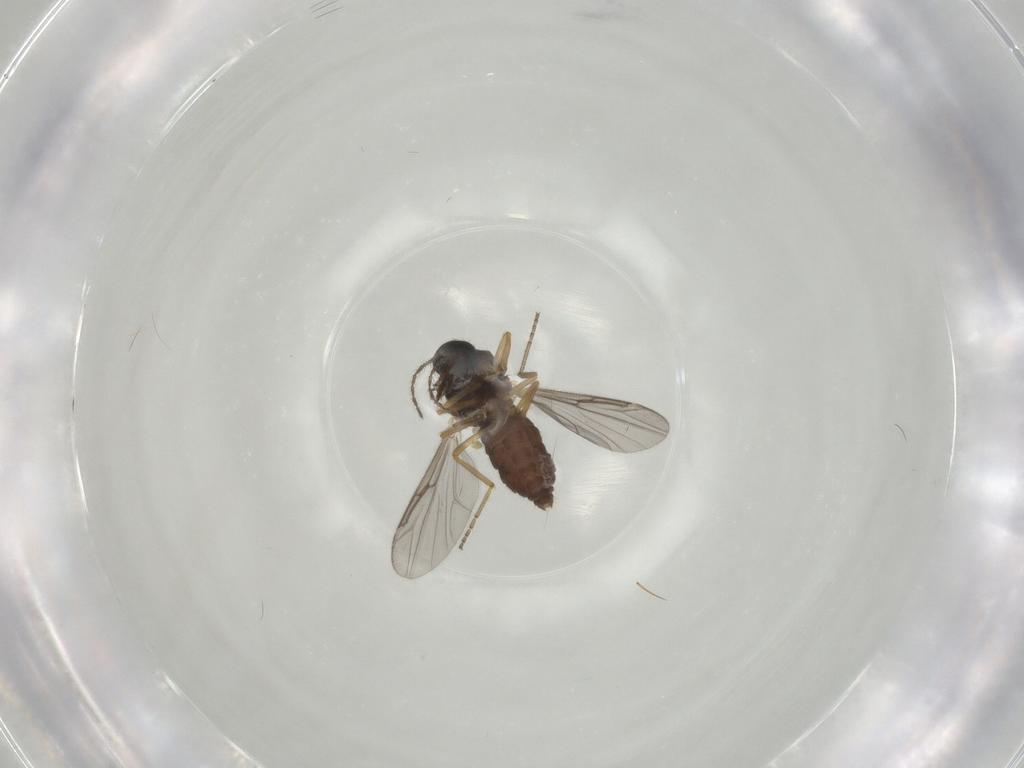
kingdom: Animalia
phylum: Arthropoda
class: Insecta
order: Diptera
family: Ceratopogonidae
